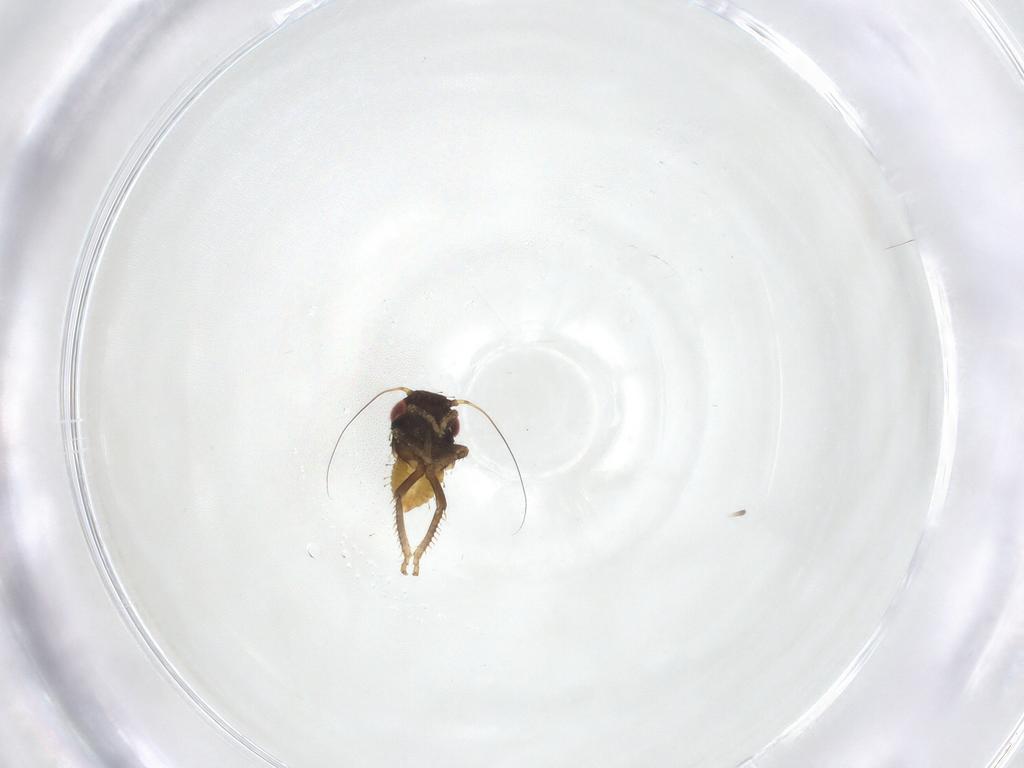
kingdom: Animalia
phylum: Arthropoda
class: Insecta
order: Hemiptera
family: Cicadellidae
